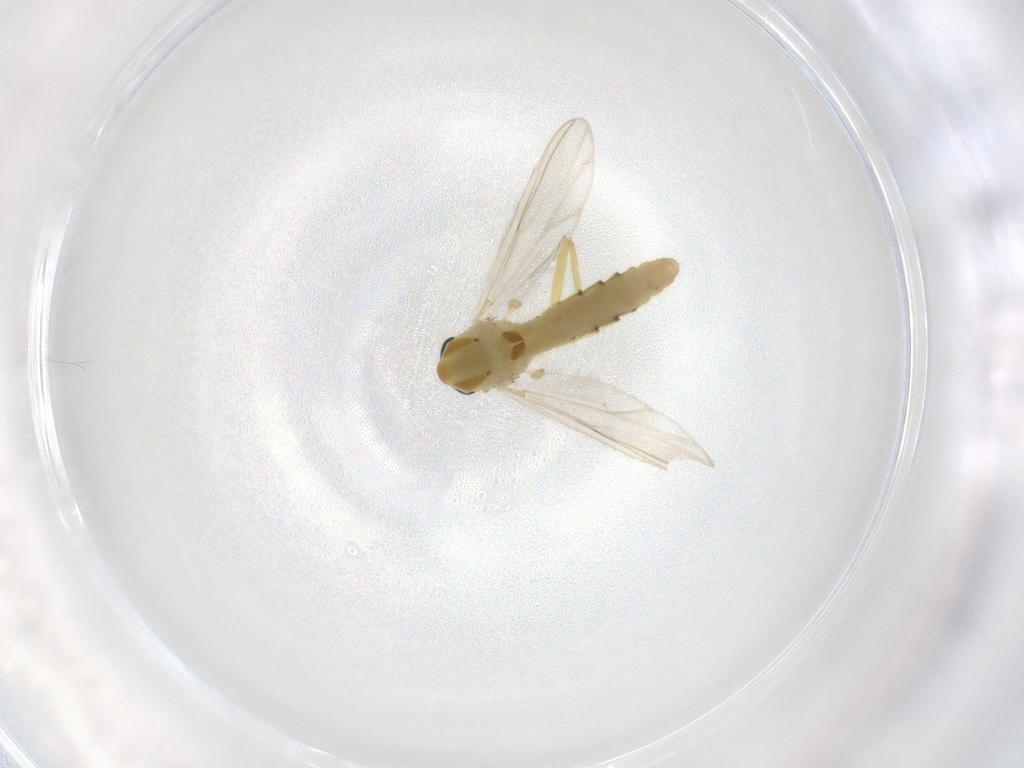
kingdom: Animalia
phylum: Arthropoda
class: Insecta
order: Diptera
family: Chironomidae
